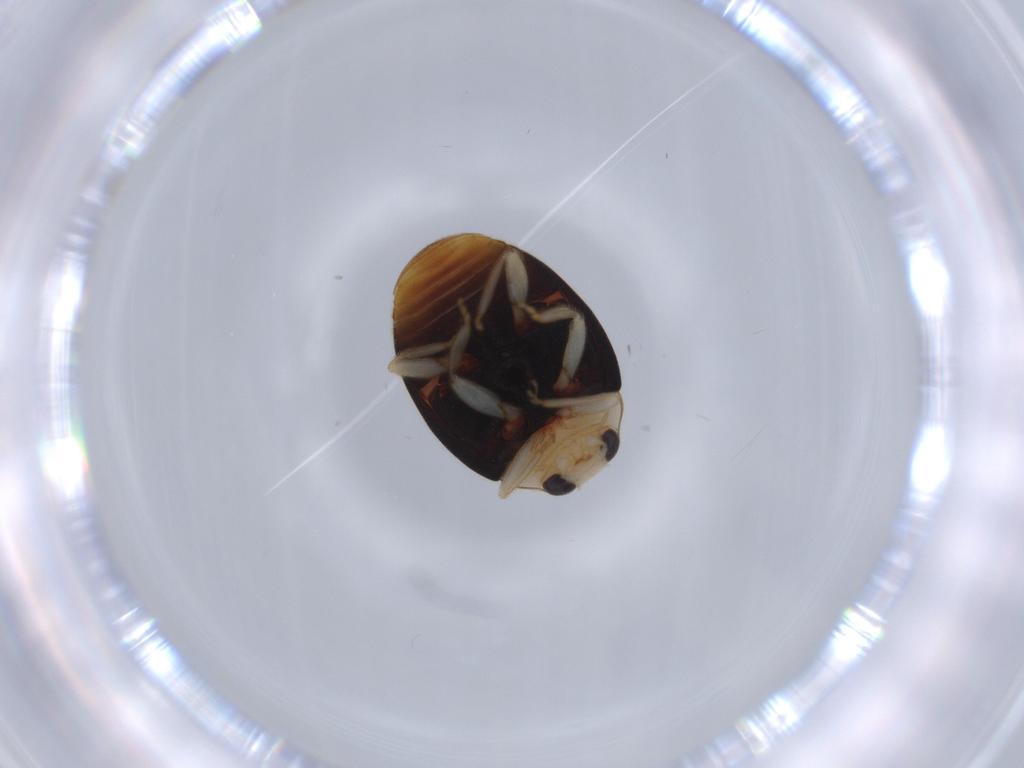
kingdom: Animalia
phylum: Arthropoda
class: Insecta
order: Coleoptera
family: Coccinellidae
